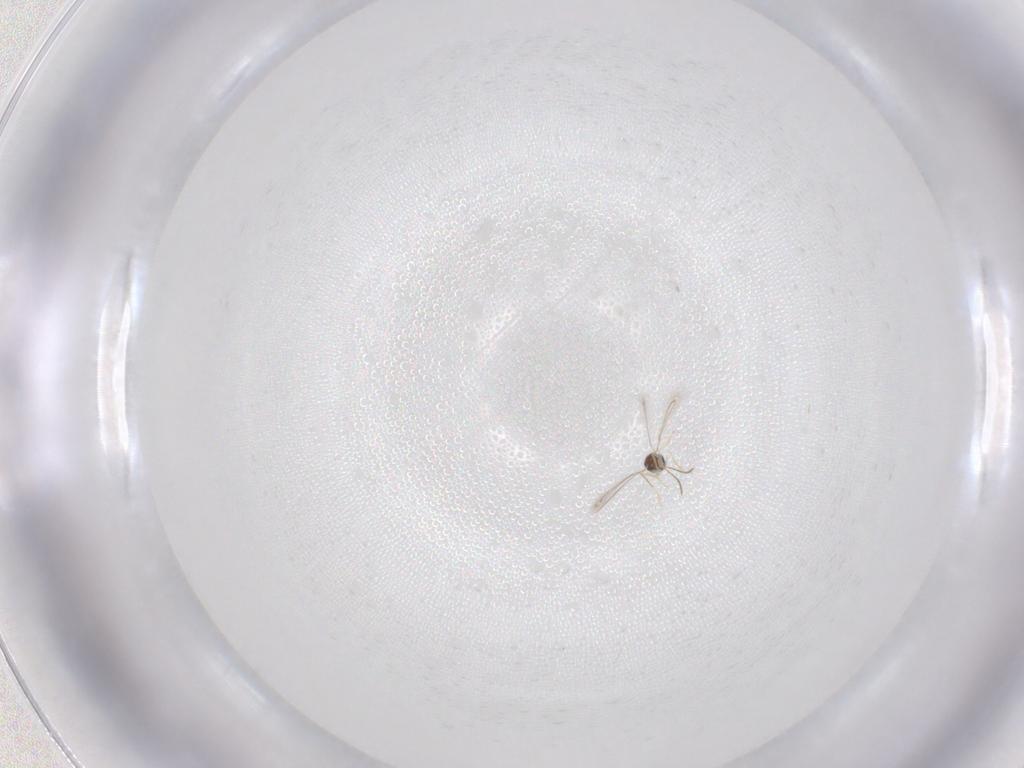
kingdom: Animalia
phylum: Arthropoda
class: Insecta
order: Hemiptera
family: Aphididae
